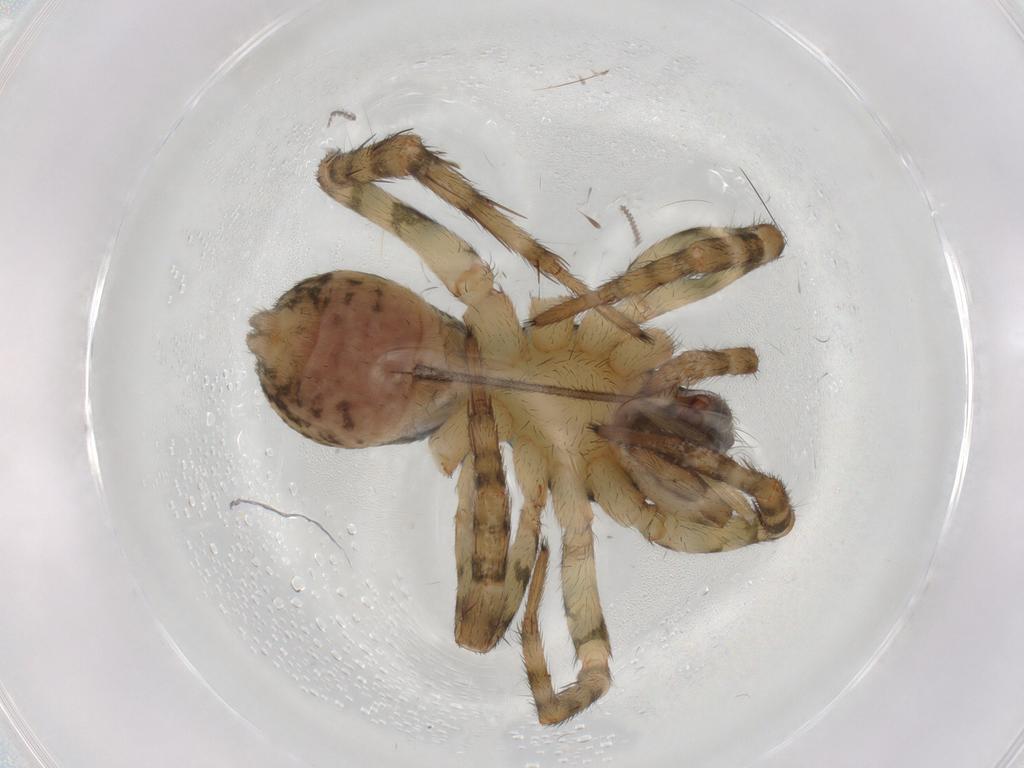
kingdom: Animalia
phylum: Arthropoda
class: Arachnida
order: Araneae
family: Lycosidae
